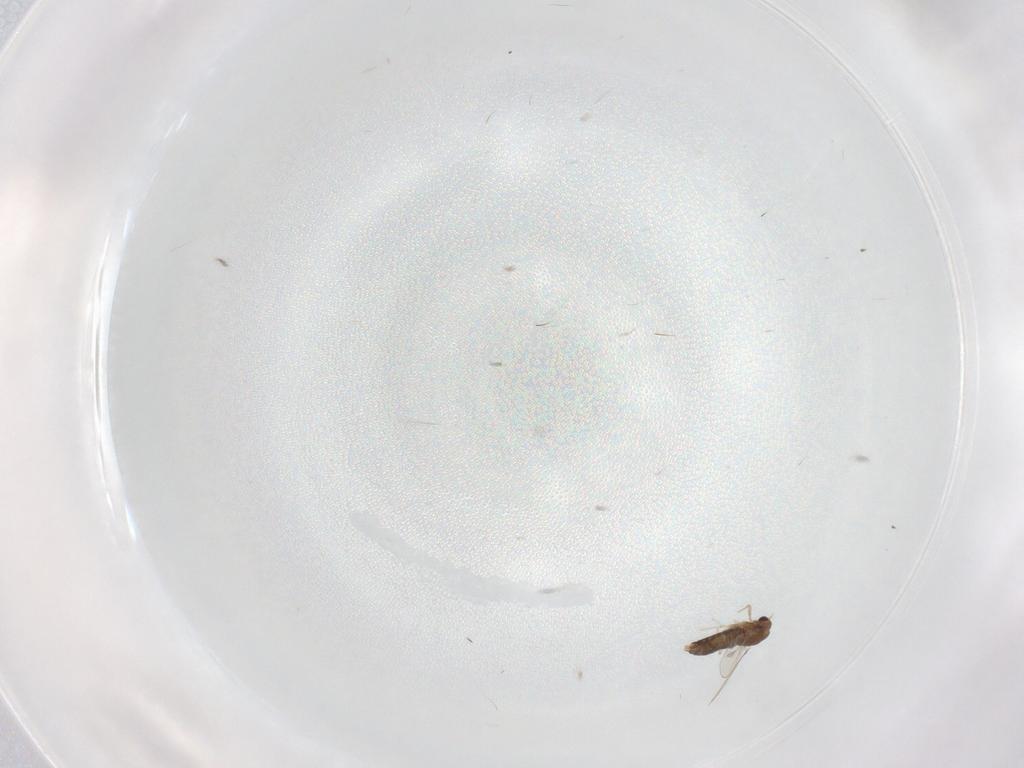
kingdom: Animalia
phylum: Arthropoda
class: Insecta
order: Diptera
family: Chironomidae
